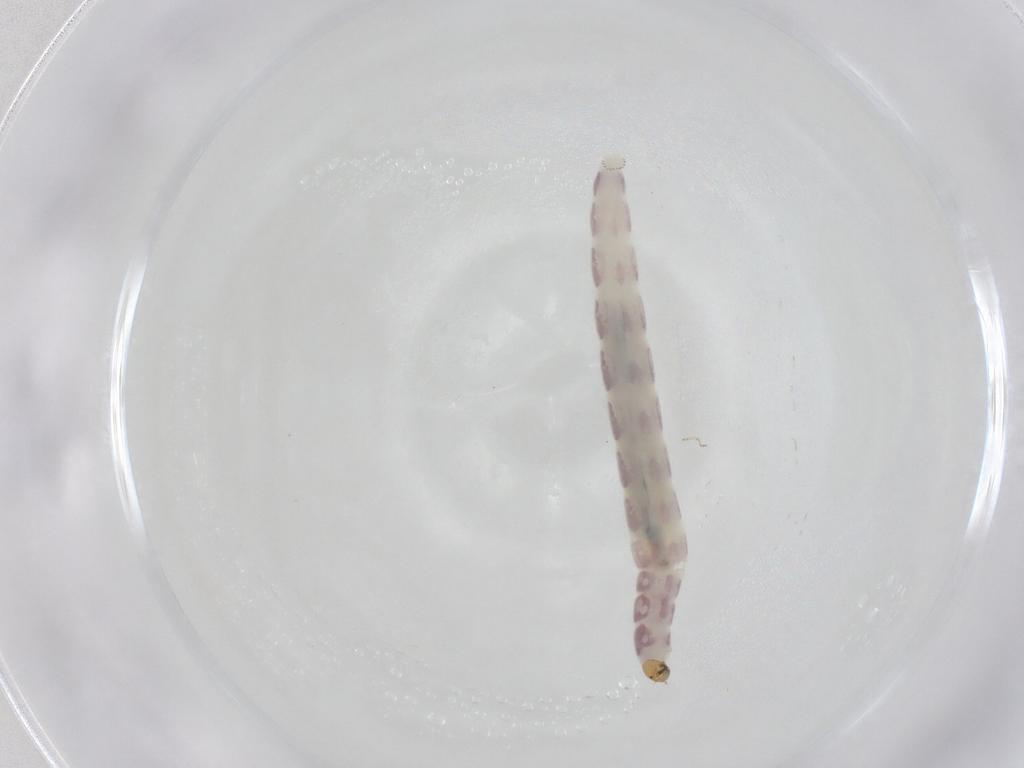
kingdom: Animalia
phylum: Arthropoda
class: Insecta
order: Diptera
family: Chironomidae
